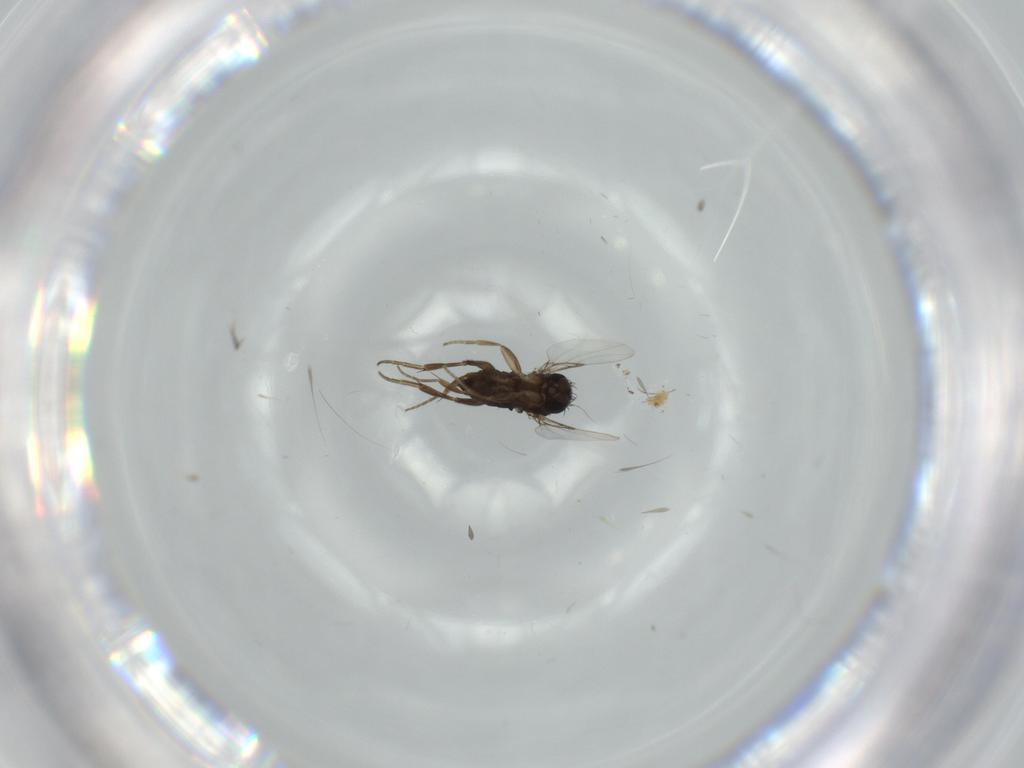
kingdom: Animalia
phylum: Arthropoda
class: Insecta
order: Diptera
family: Phoridae
